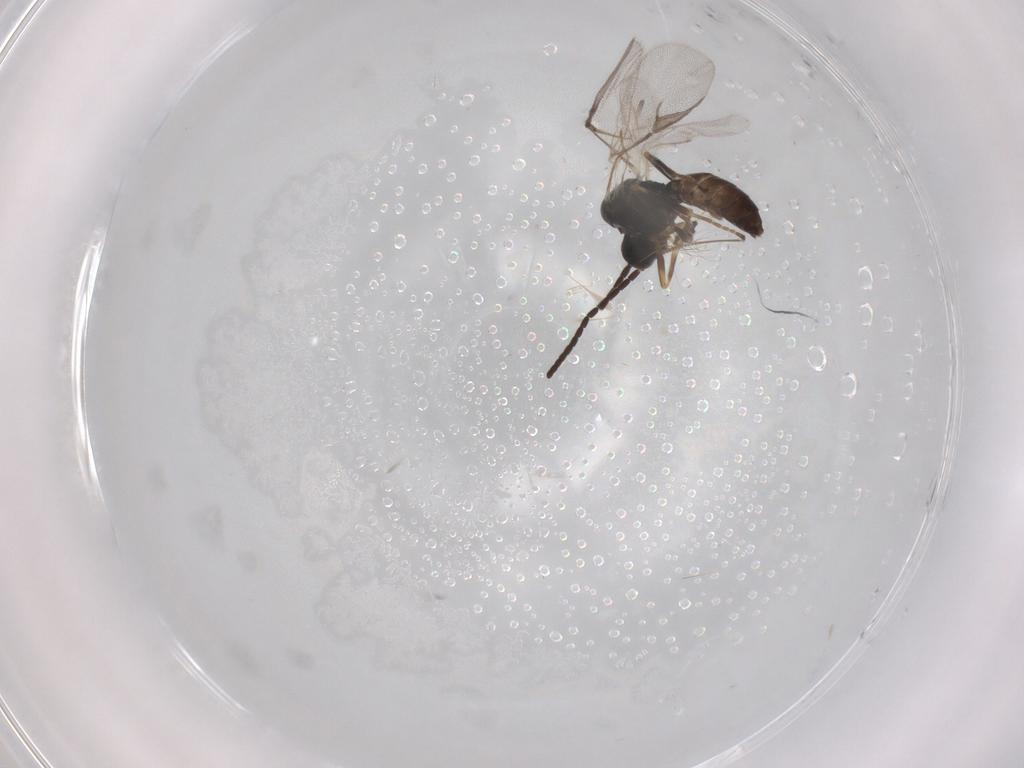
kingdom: Animalia
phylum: Arthropoda
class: Insecta
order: Hymenoptera
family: Braconidae
